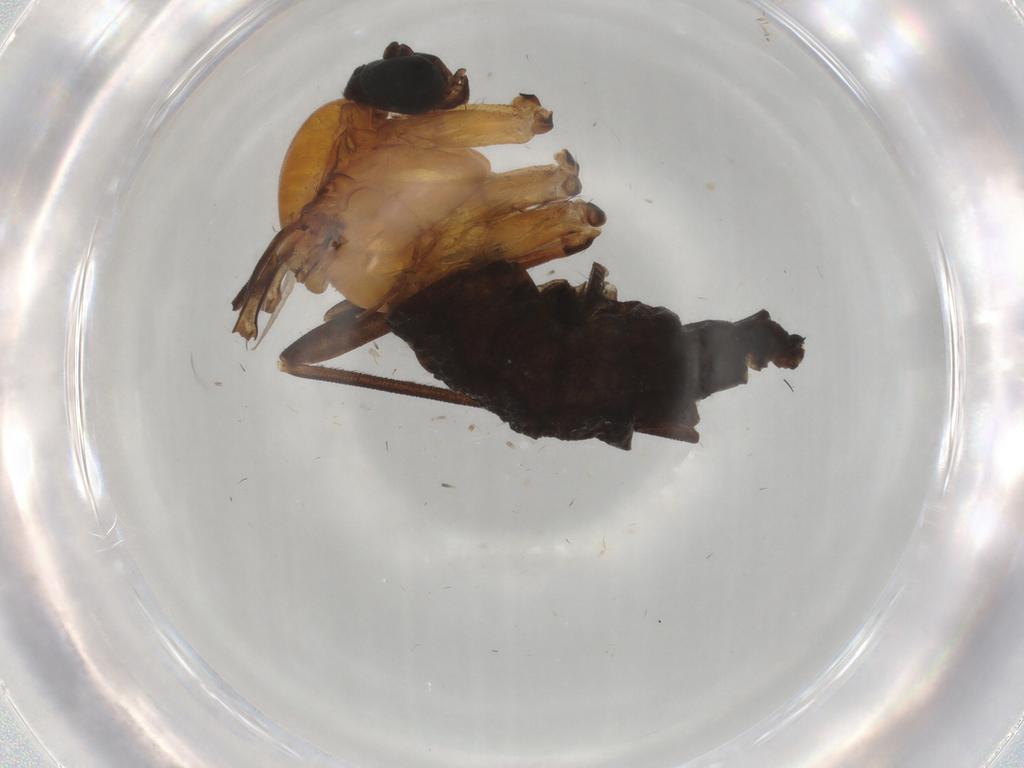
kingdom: Animalia
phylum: Arthropoda
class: Insecta
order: Diptera
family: Sciaridae
